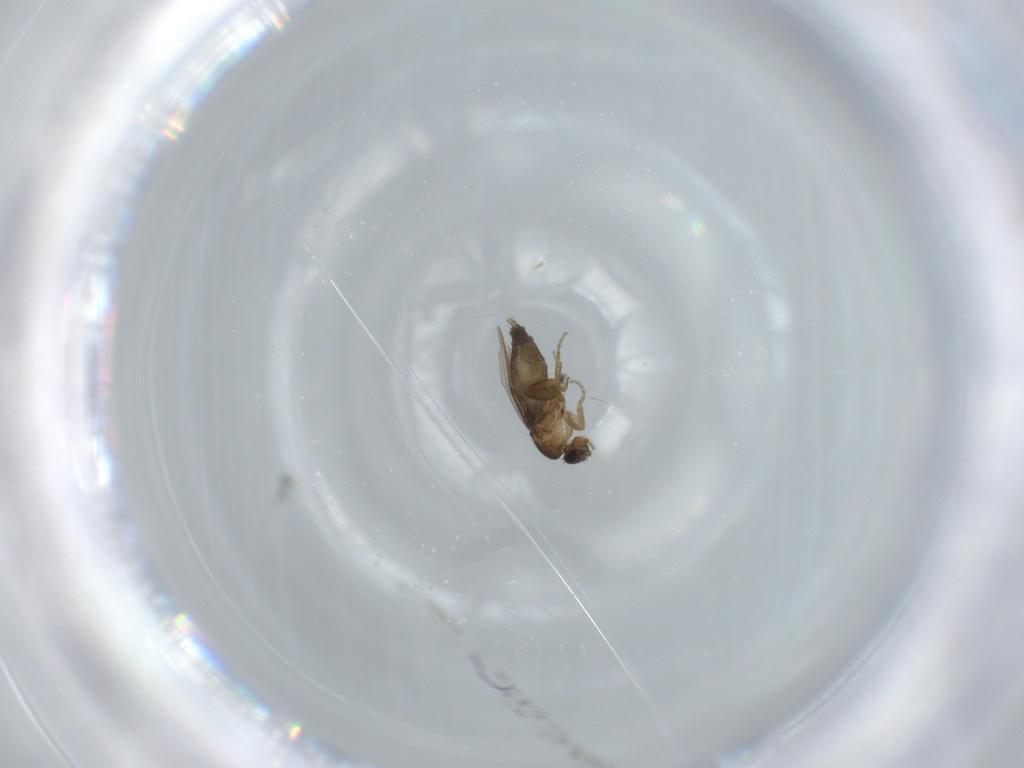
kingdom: Animalia
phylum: Arthropoda
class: Insecta
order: Diptera
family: Phoridae
